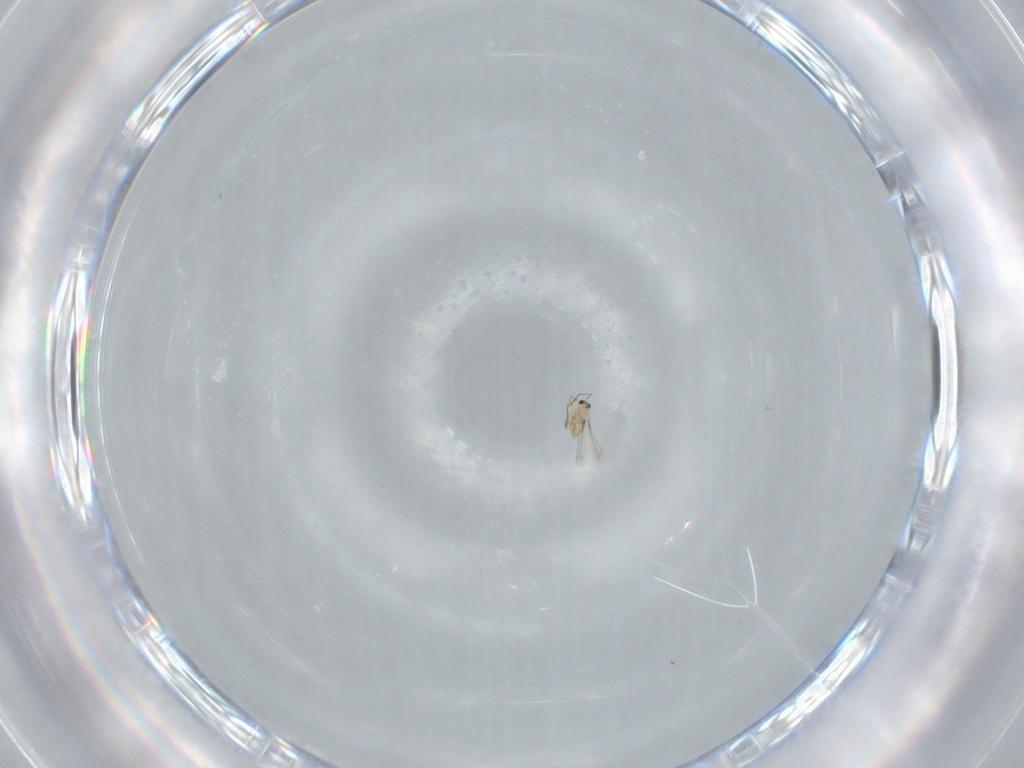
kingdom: Animalia
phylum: Arthropoda
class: Insecta
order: Hymenoptera
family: Mymaridae
